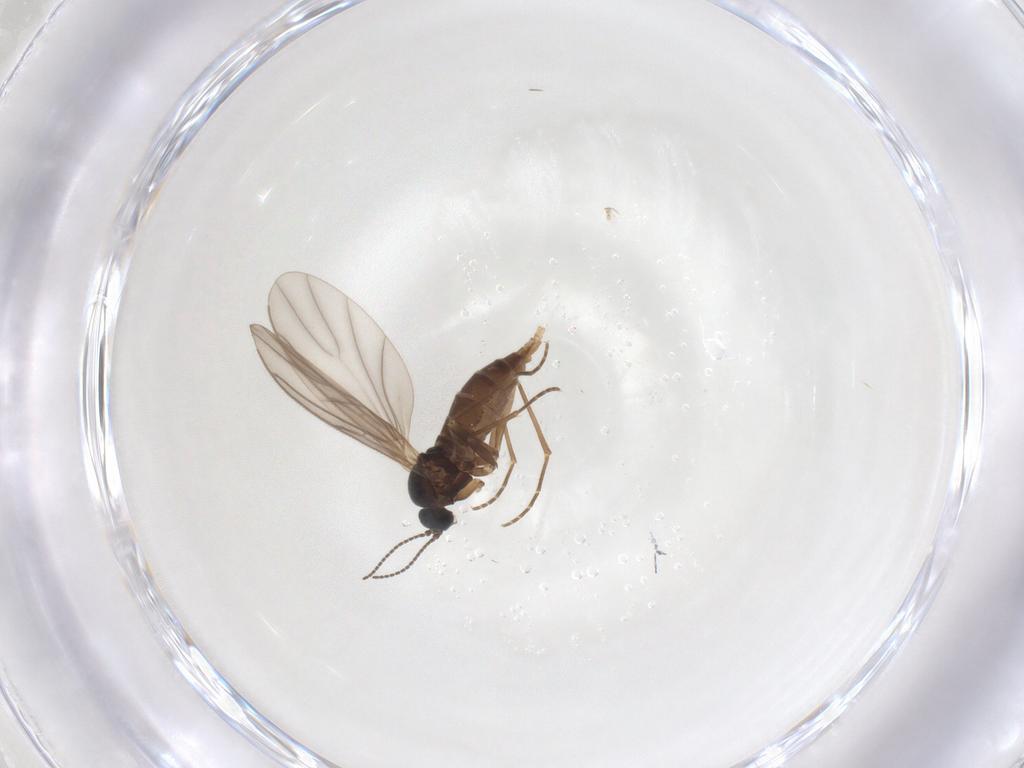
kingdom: Animalia
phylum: Arthropoda
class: Insecta
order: Diptera
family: Sciaridae
